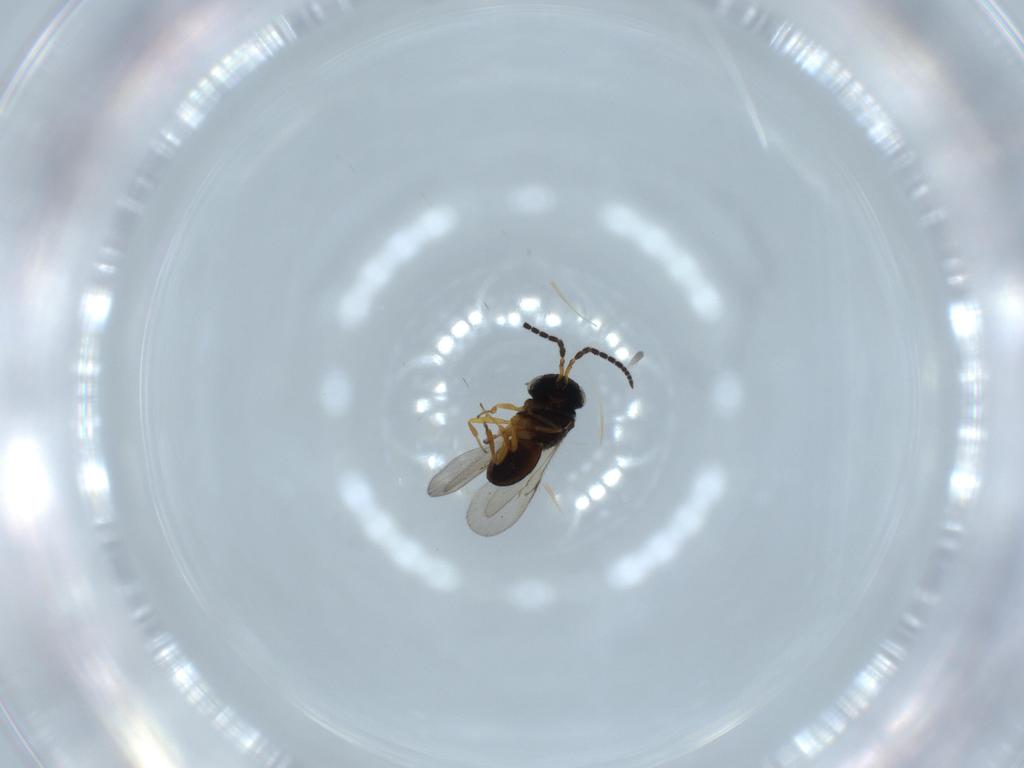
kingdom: Animalia
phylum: Arthropoda
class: Insecta
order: Hymenoptera
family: Scelionidae
